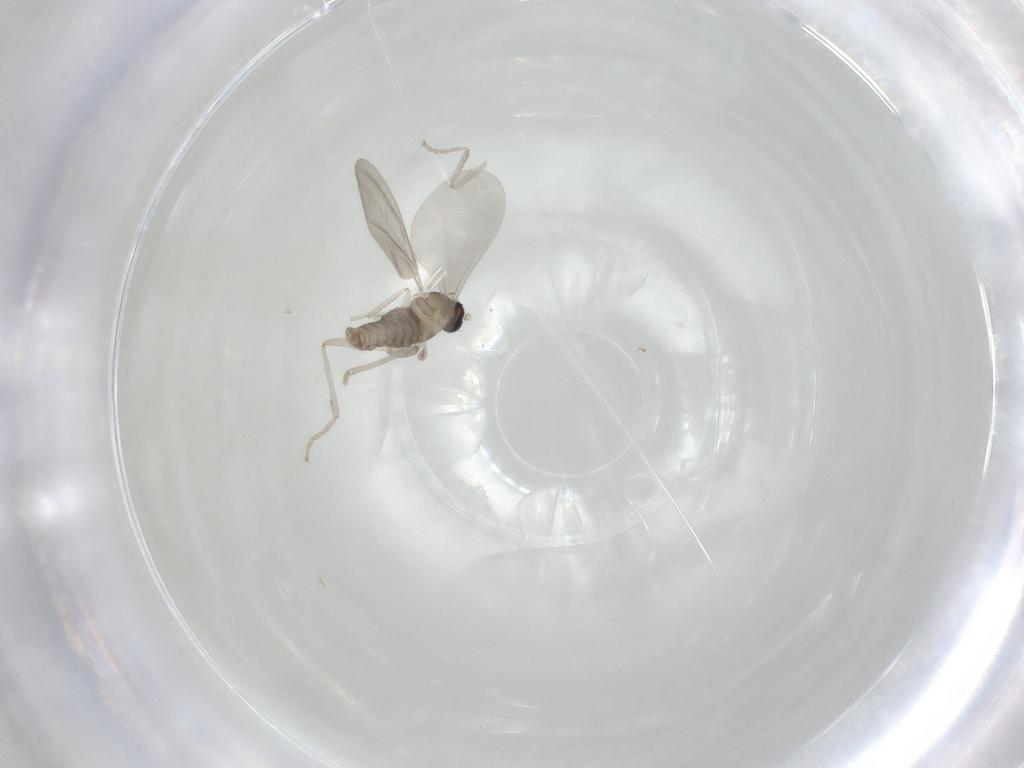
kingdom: Animalia
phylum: Arthropoda
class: Insecta
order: Diptera
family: Cecidomyiidae
